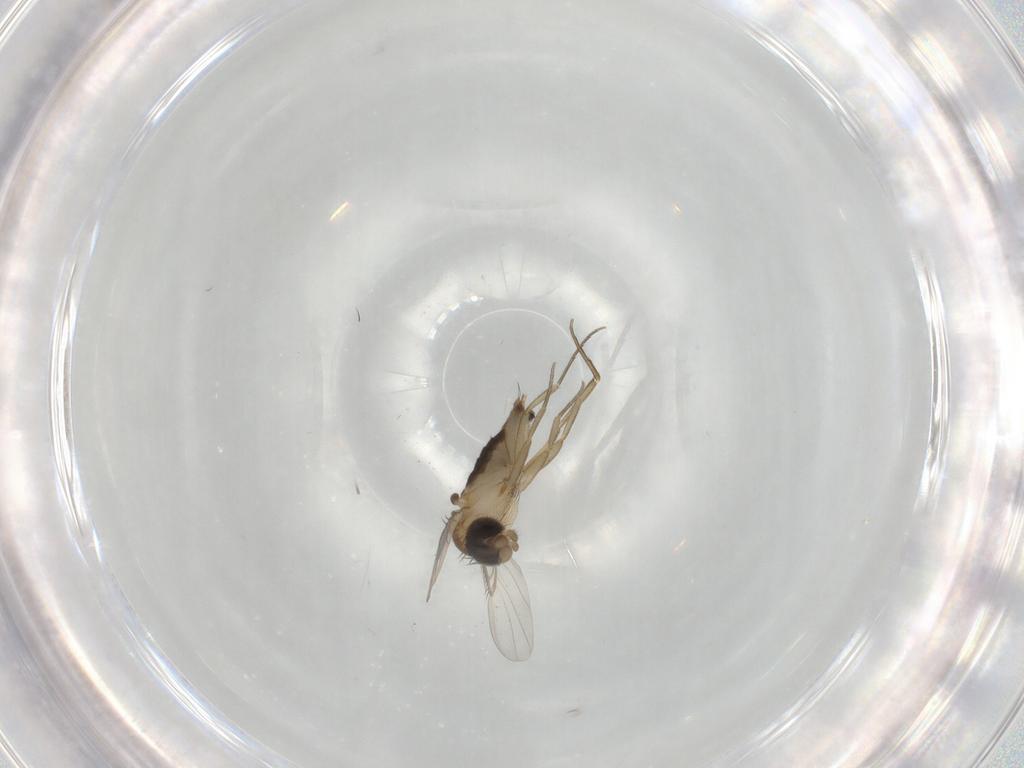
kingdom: Animalia
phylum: Arthropoda
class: Insecta
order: Diptera
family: Phoridae
